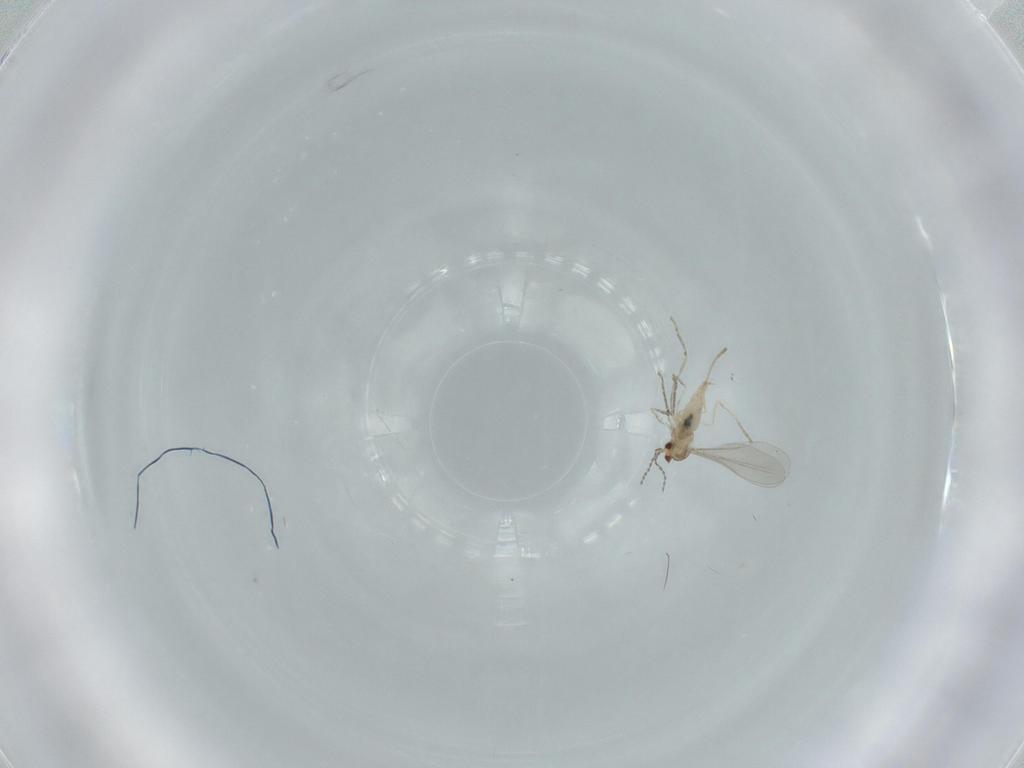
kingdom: Animalia
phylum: Arthropoda
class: Insecta
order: Diptera
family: Cecidomyiidae
